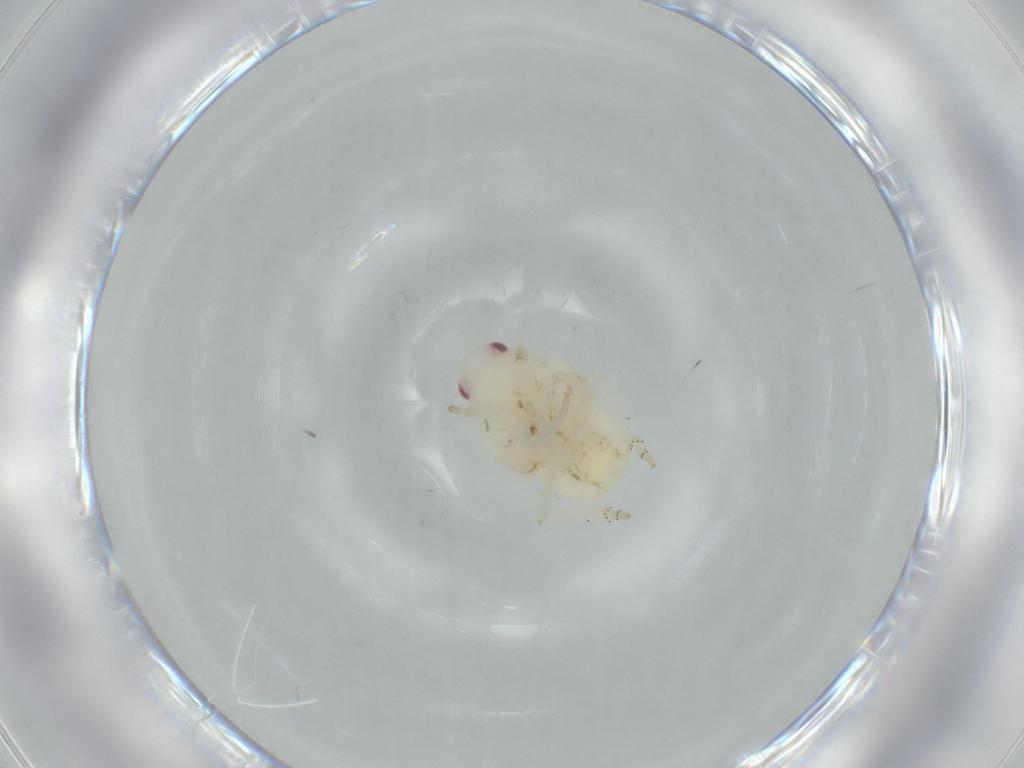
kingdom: Animalia
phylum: Arthropoda
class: Insecta
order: Hemiptera
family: Flatidae
